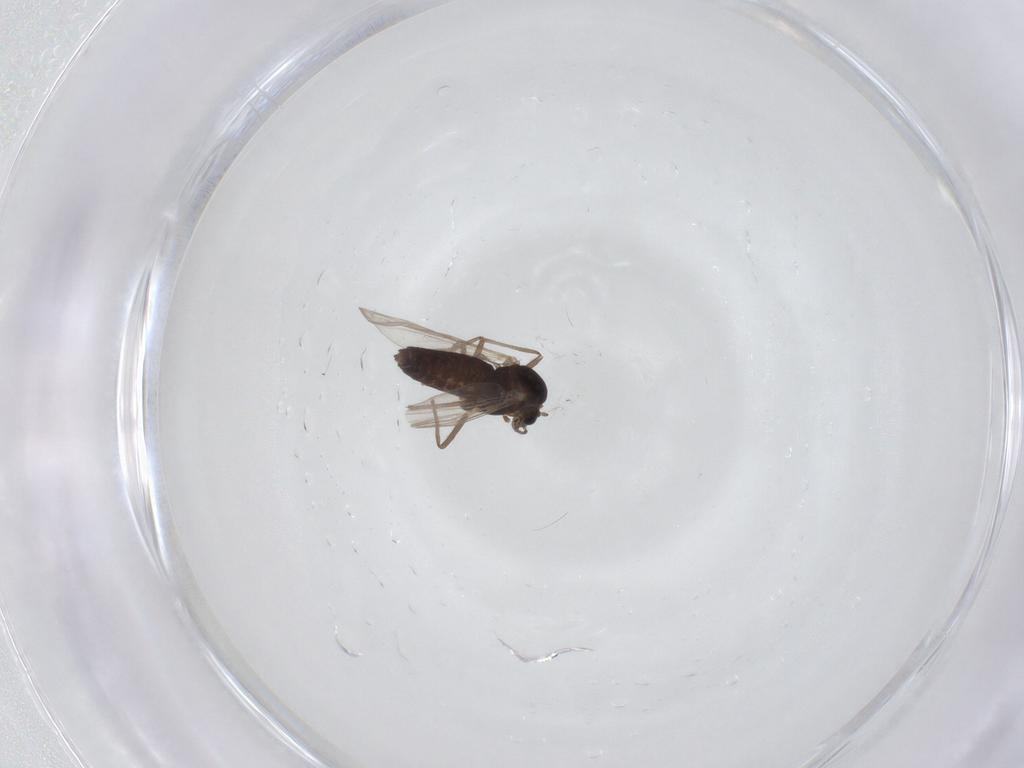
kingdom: Animalia
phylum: Arthropoda
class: Insecta
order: Diptera
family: Chironomidae
